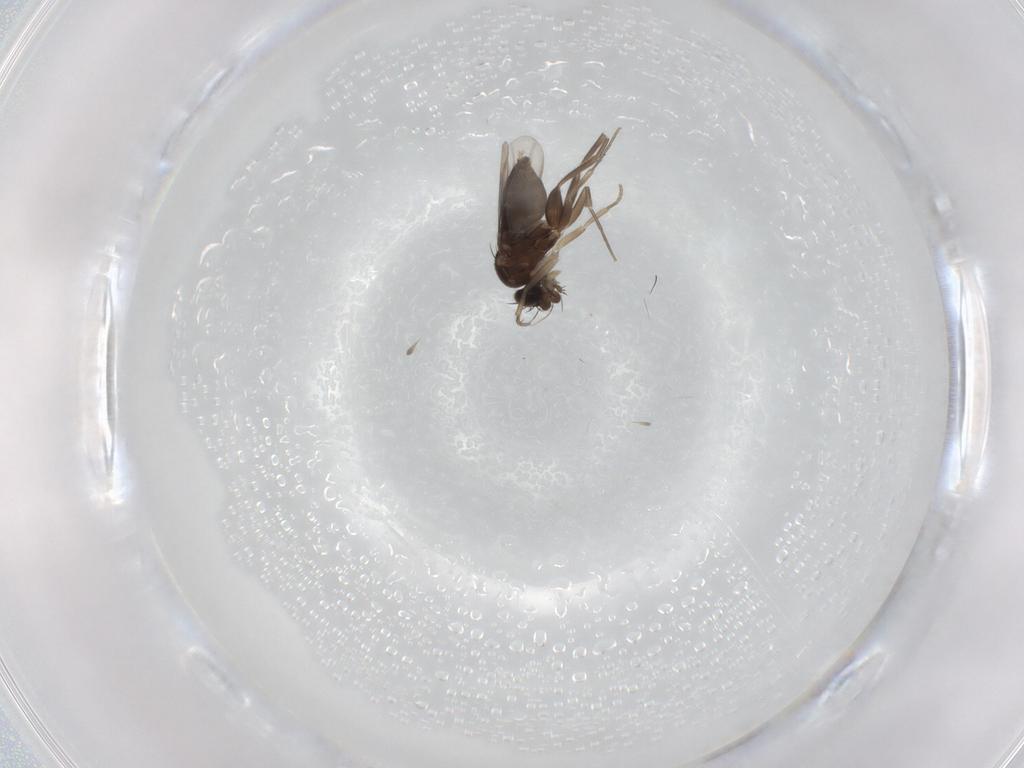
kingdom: Animalia
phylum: Arthropoda
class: Insecta
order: Diptera
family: Phoridae
